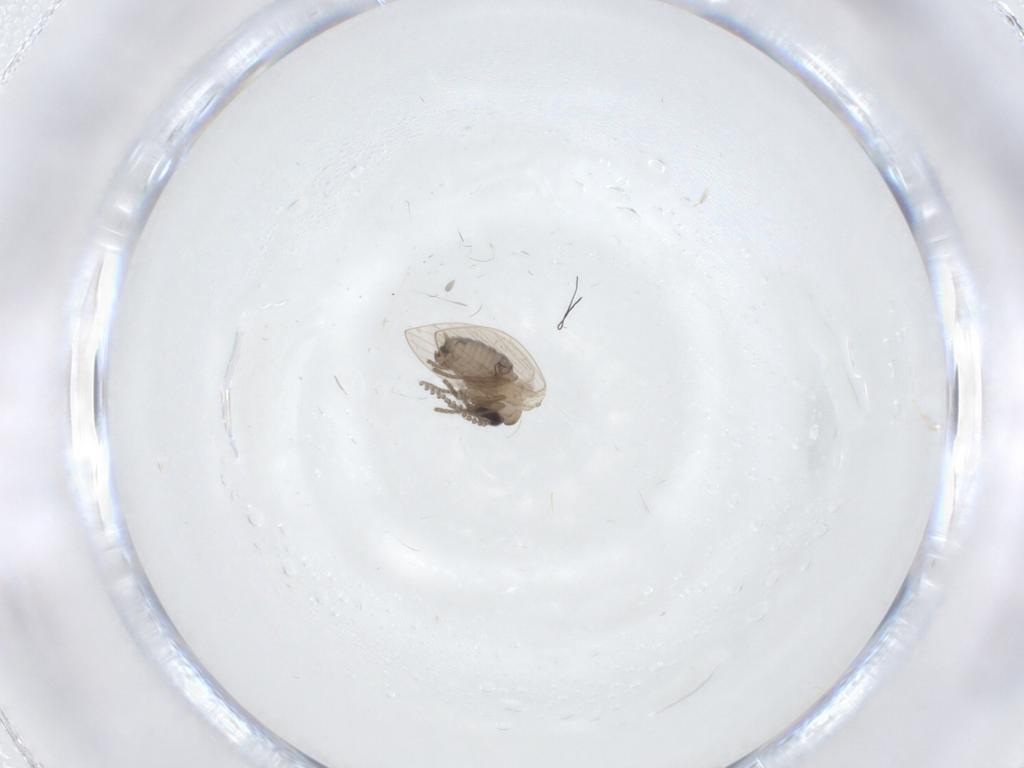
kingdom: Animalia
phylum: Arthropoda
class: Insecta
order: Diptera
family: Psychodidae
